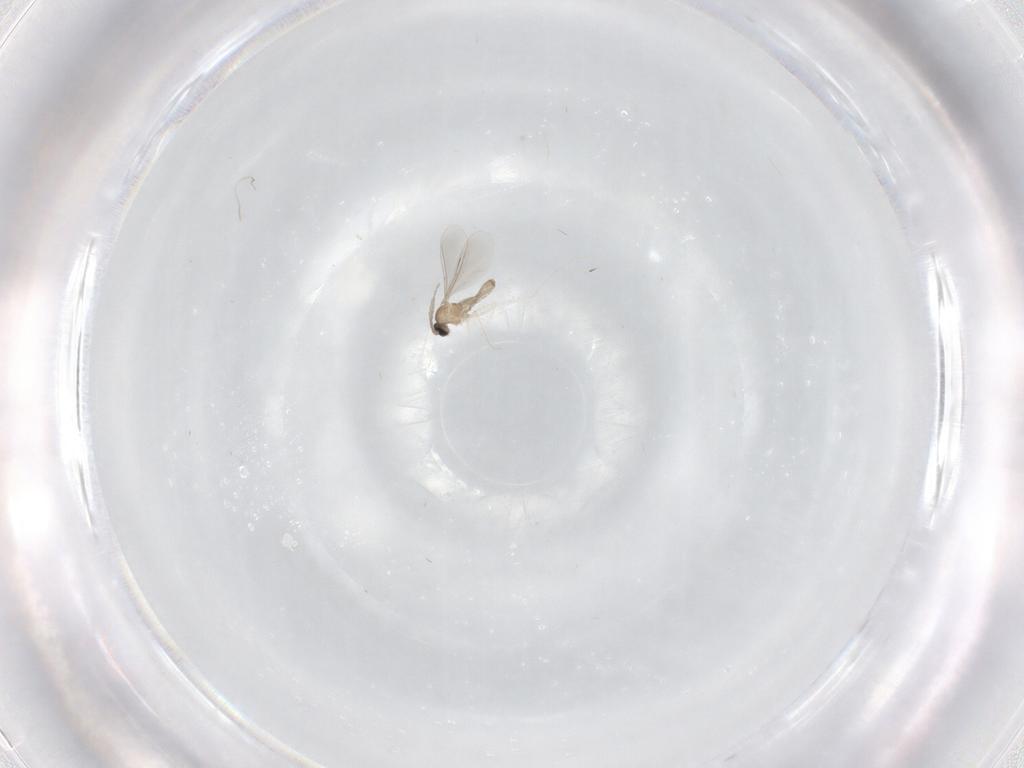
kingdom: Animalia
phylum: Arthropoda
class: Insecta
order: Diptera
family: Cecidomyiidae
